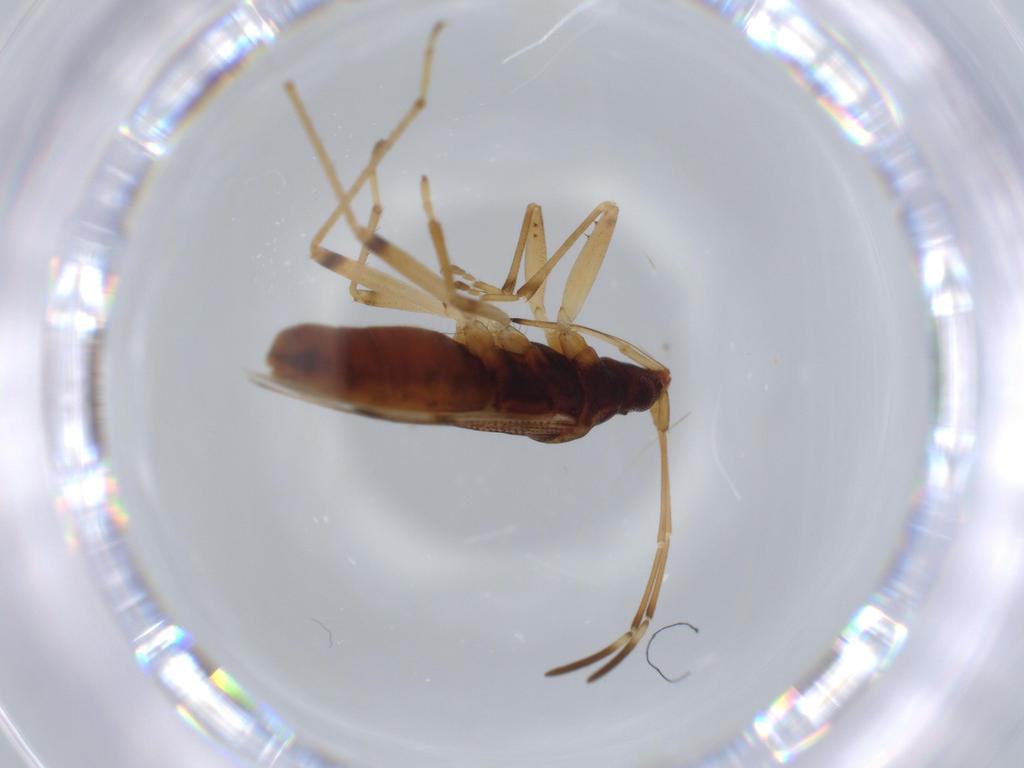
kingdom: Animalia
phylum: Arthropoda
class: Insecta
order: Hemiptera
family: Rhyparochromidae
